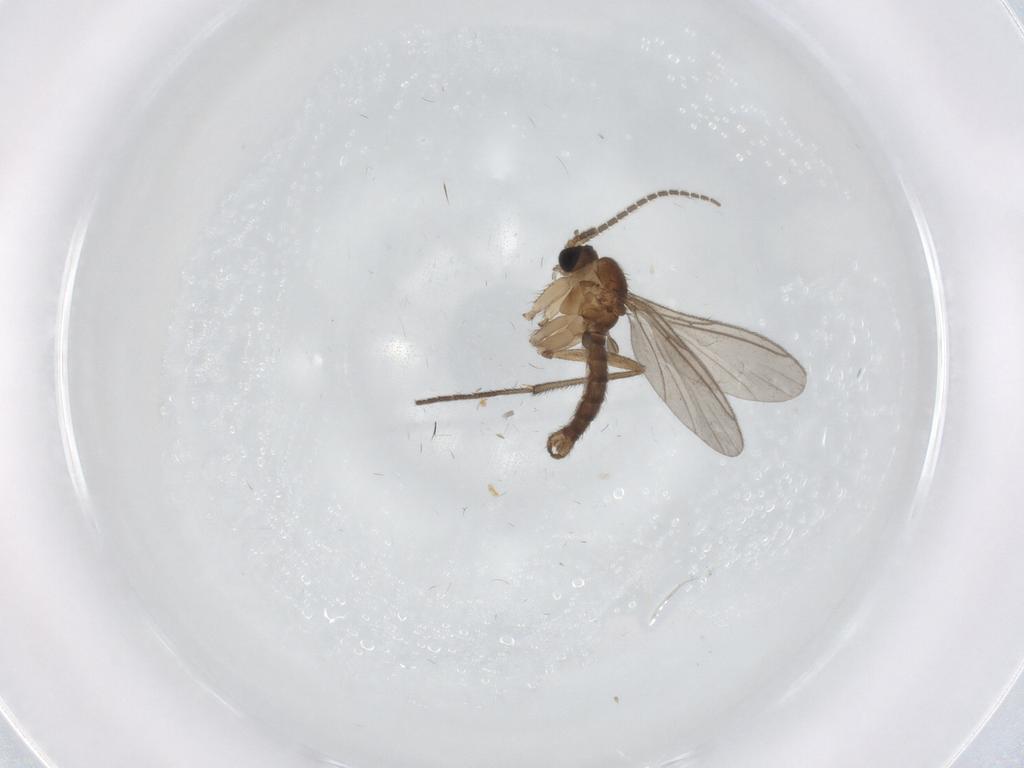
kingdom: Animalia
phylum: Arthropoda
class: Insecta
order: Diptera
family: Sciaridae
